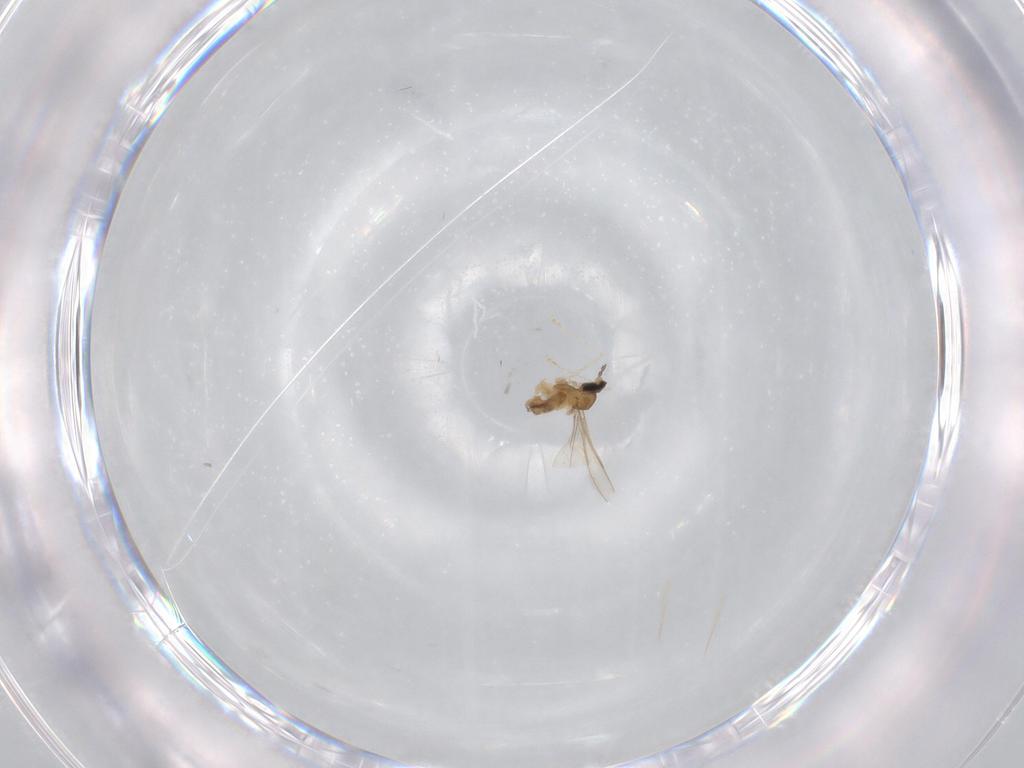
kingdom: Animalia
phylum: Arthropoda
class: Insecta
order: Diptera
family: Cecidomyiidae
